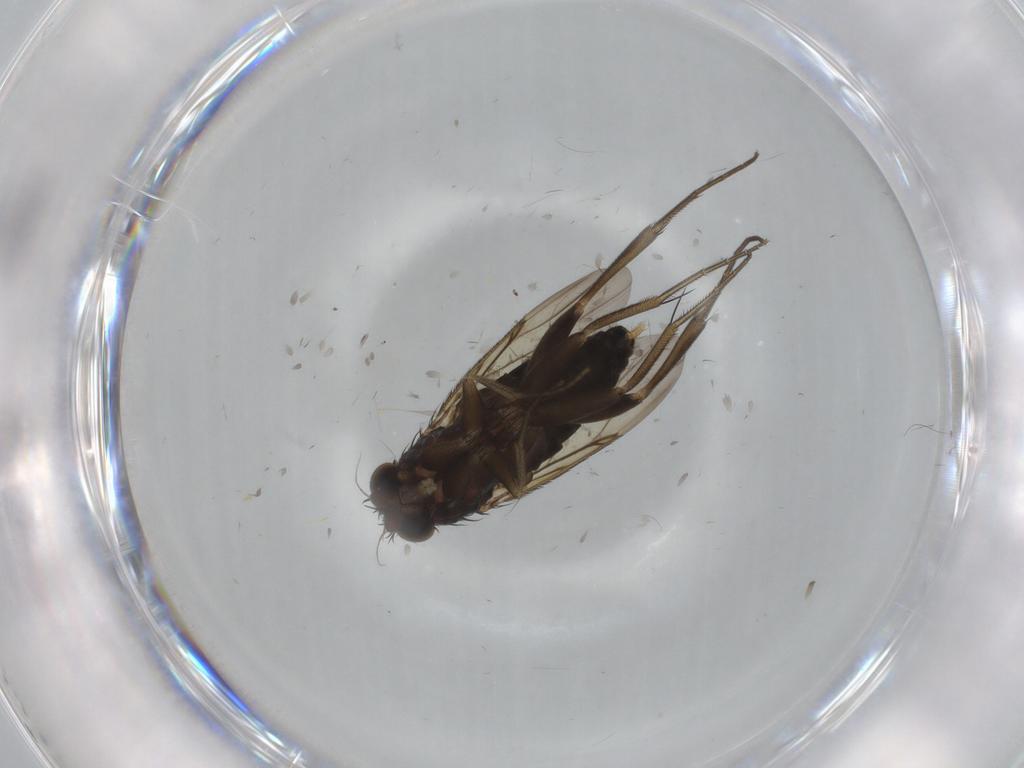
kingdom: Animalia
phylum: Arthropoda
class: Insecta
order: Diptera
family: Phoridae
